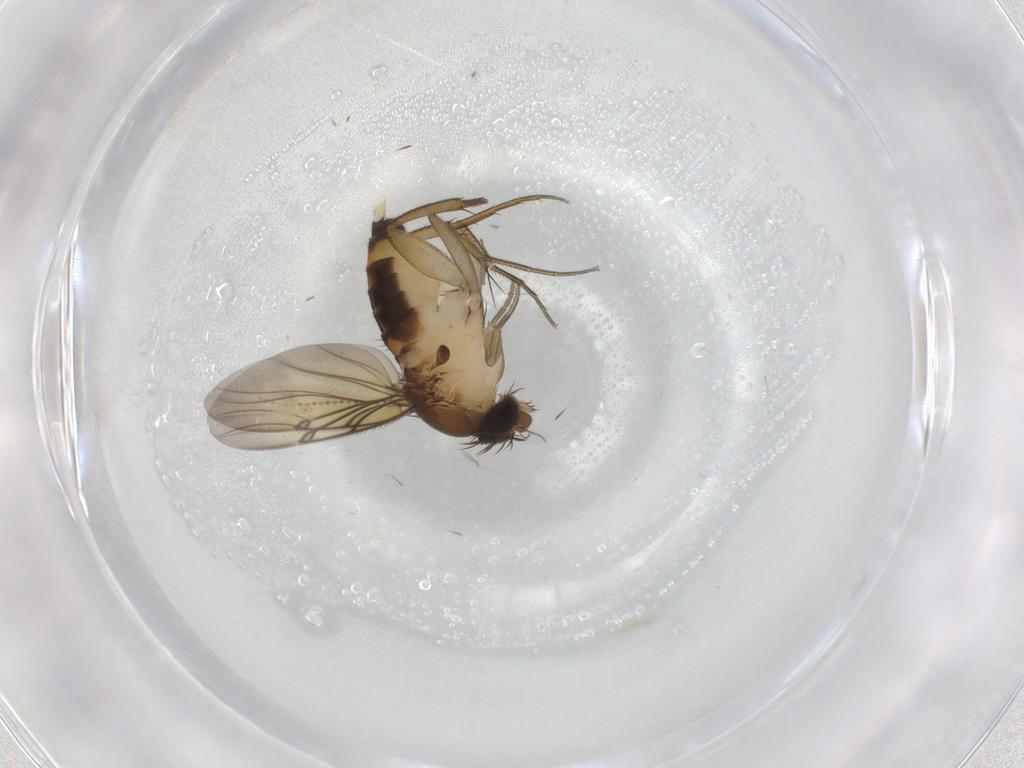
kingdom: Animalia
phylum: Arthropoda
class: Insecta
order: Diptera
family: Psychodidae
